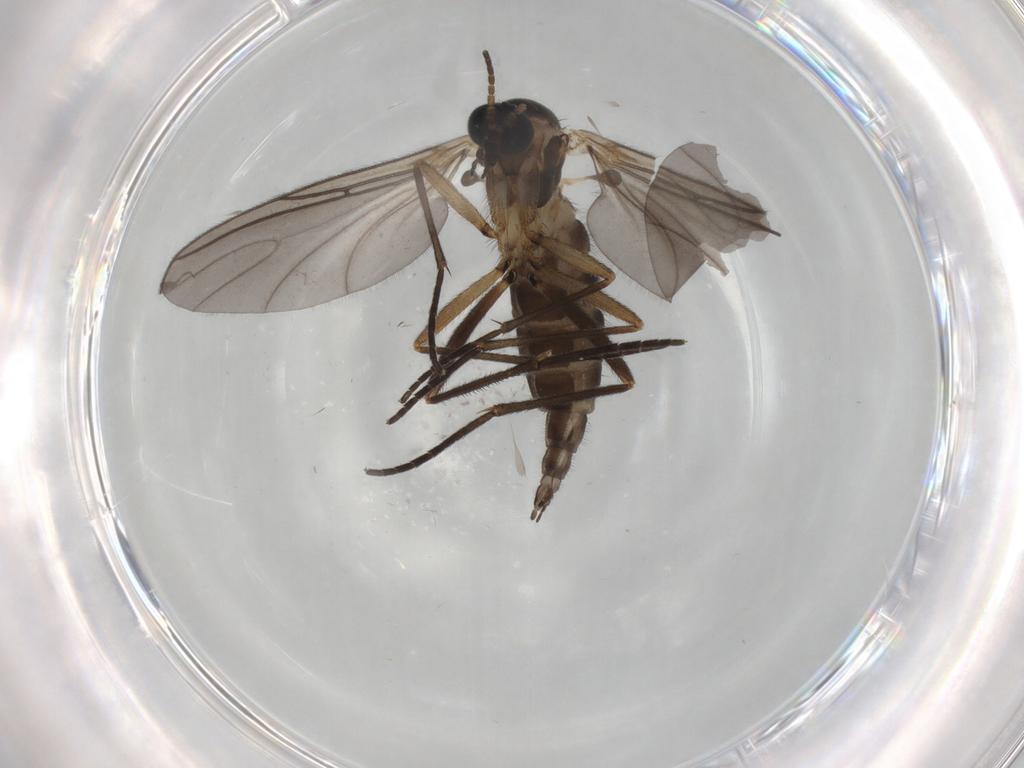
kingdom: Animalia
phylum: Arthropoda
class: Insecta
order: Diptera
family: Sciaridae
